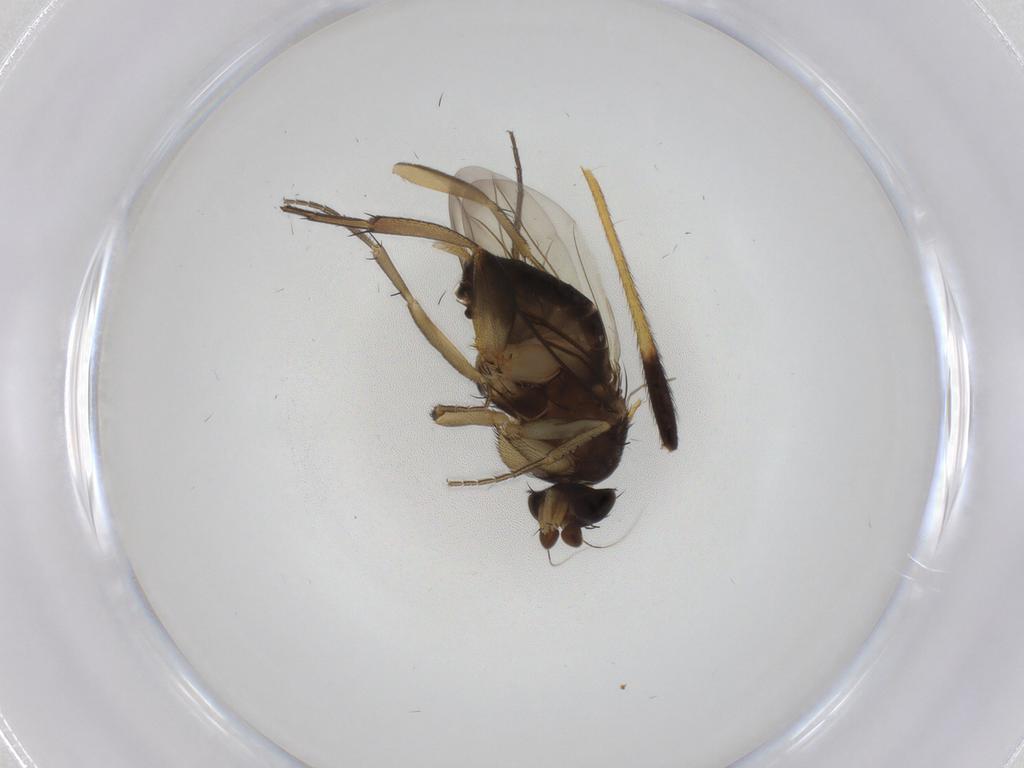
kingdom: Animalia
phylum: Arthropoda
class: Insecta
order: Diptera
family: Phoridae
